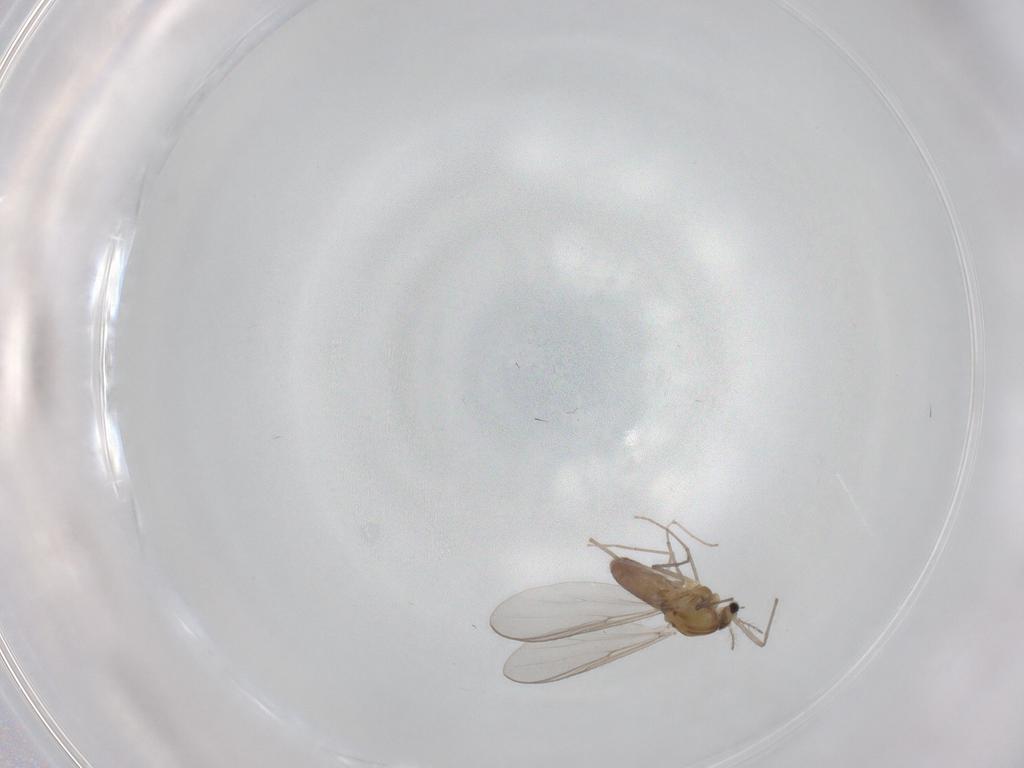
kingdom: Animalia
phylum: Arthropoda
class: Insecta
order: Diptera
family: Chironomidae
